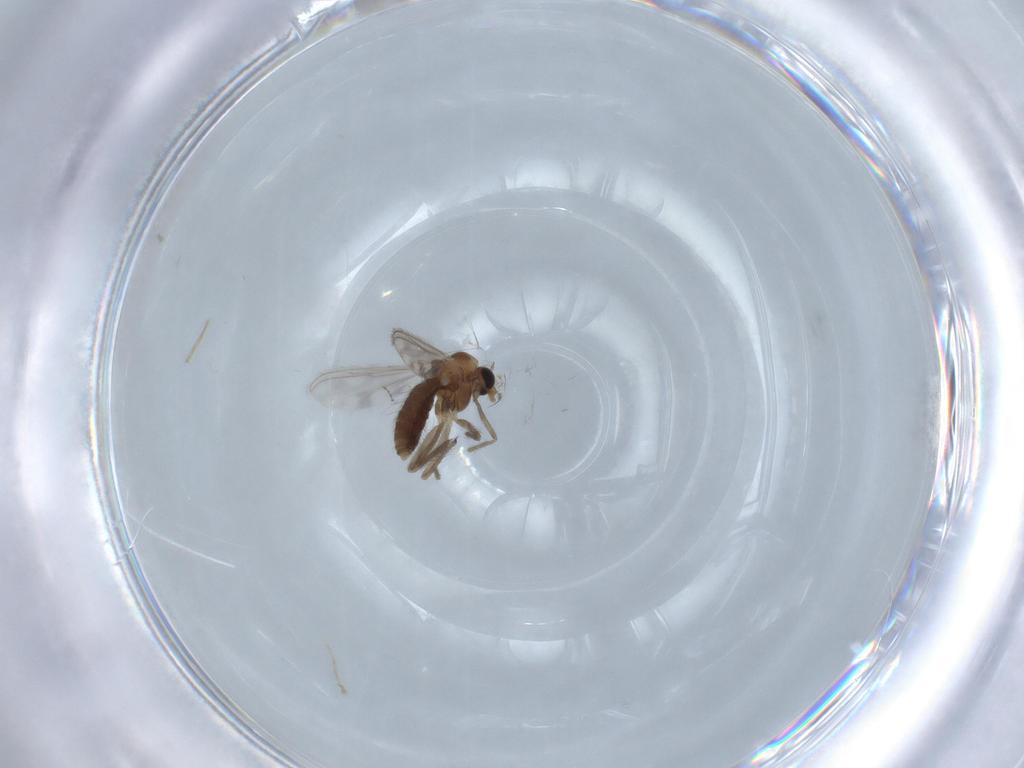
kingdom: Animalia
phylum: Arthropoda
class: Insecta
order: Diptera
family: Chironomidae
